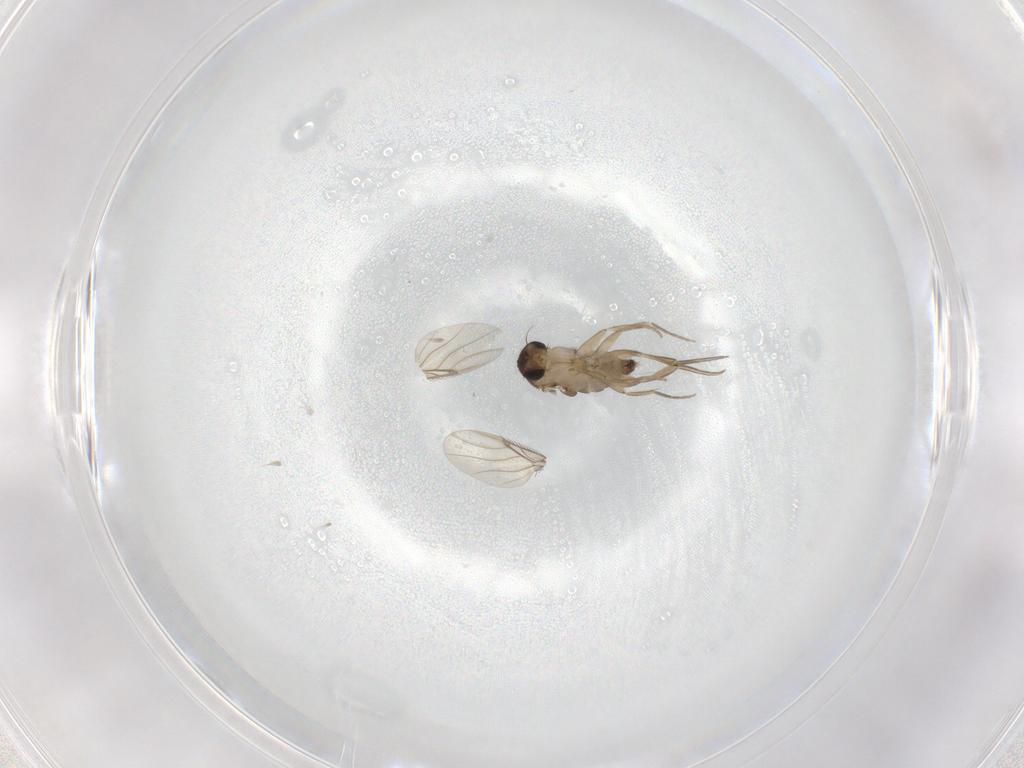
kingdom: Animalia
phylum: Arthropoda
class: Insecta
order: Diptera
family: Phoridae
